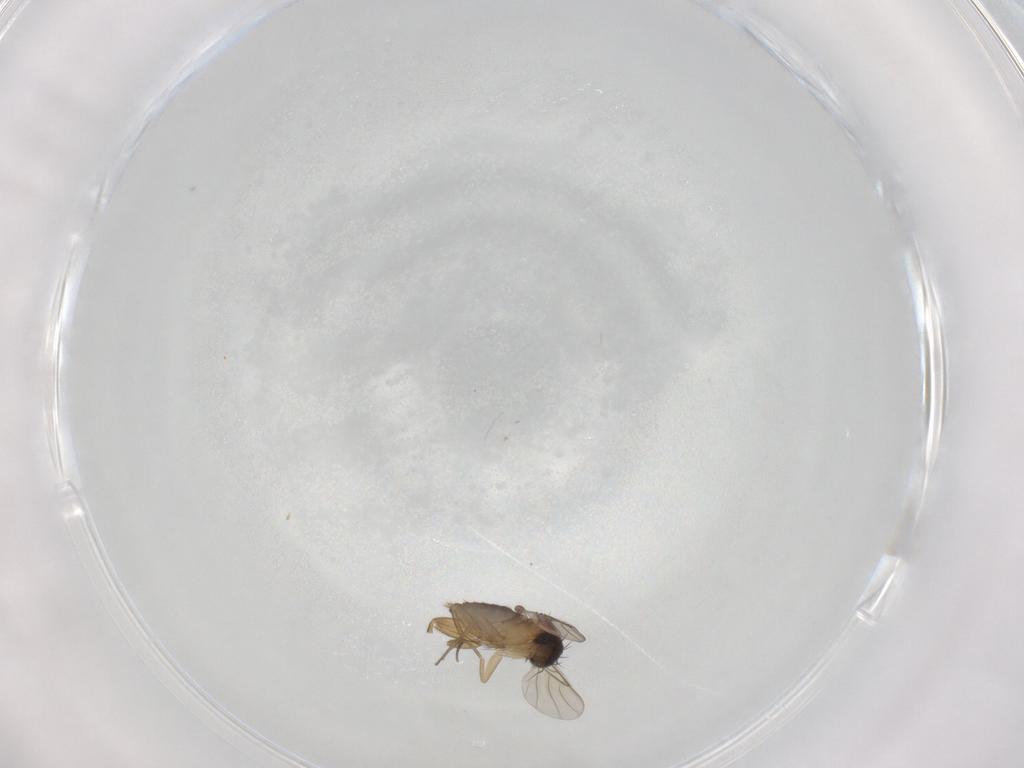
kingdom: Animalia
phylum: Arthropoda
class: Insecta
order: Diptera
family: Phoridae
